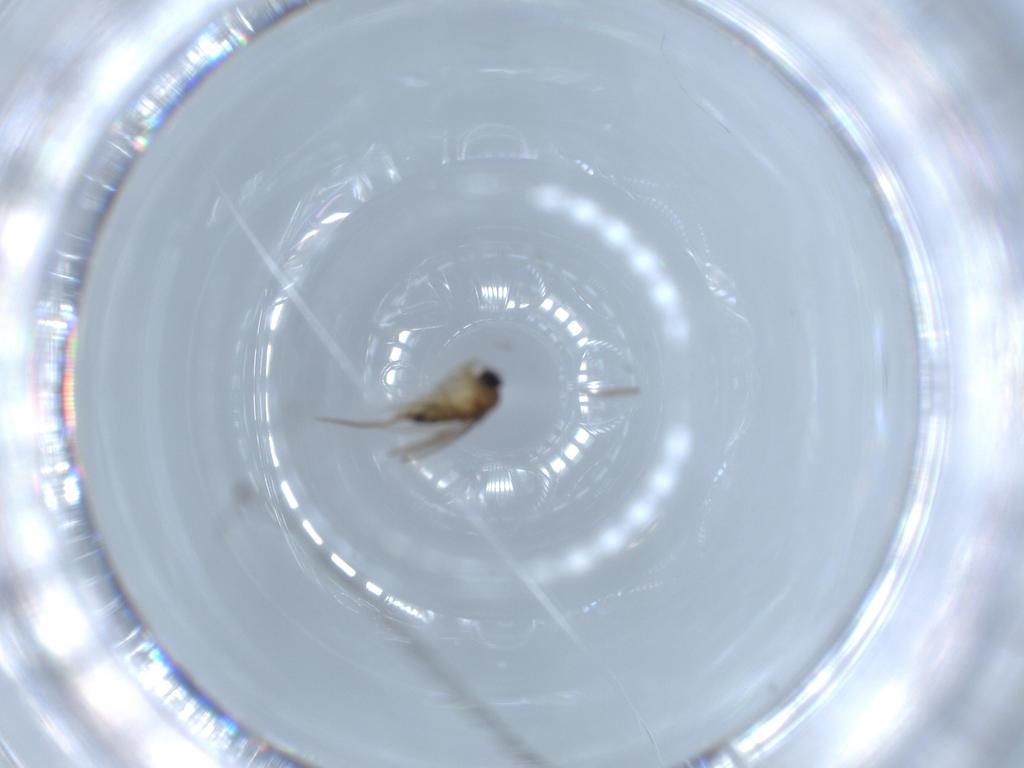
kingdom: Animalia
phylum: Arthropoda
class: Insecta
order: Diptera
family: Phoridae
